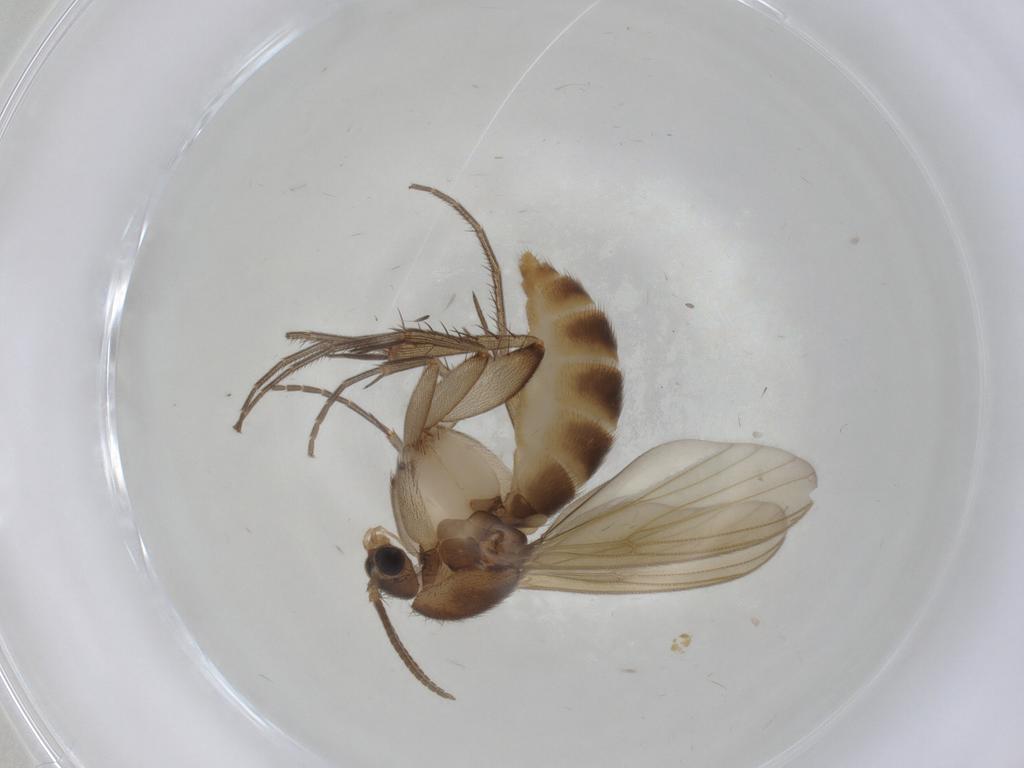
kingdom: Animalia
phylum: Arthropoda
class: Insecta
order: Diptera
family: Mycetophilidae
